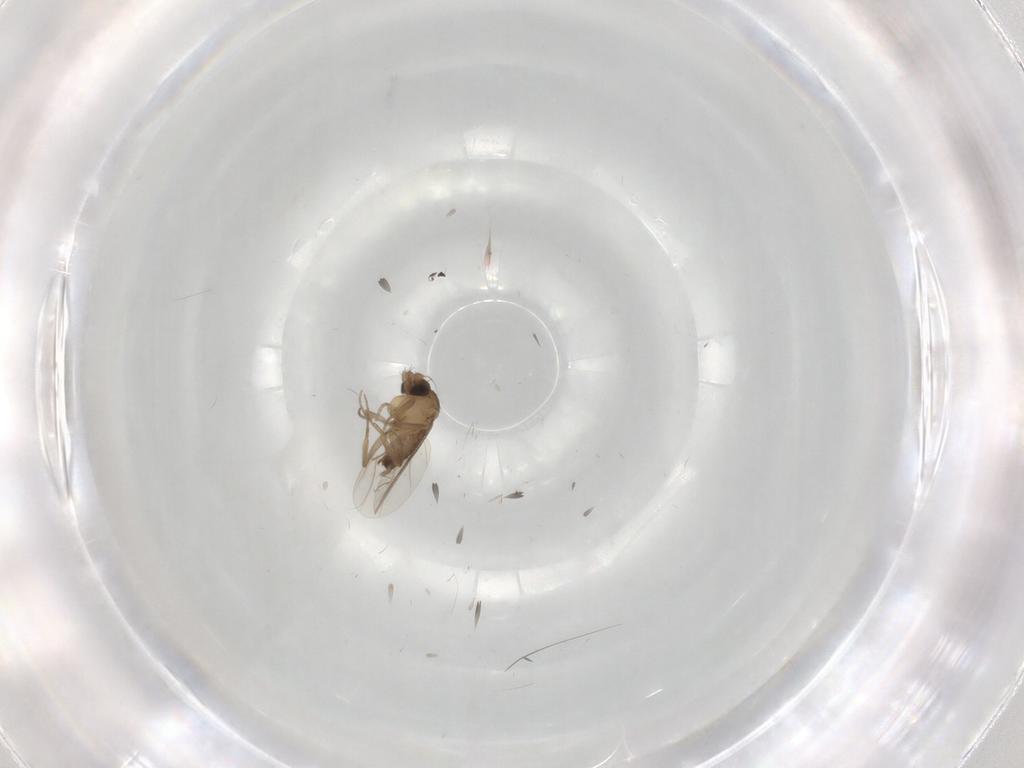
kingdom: Animalia
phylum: Arthropoda
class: Insecta
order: Diptera
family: Phoridae
